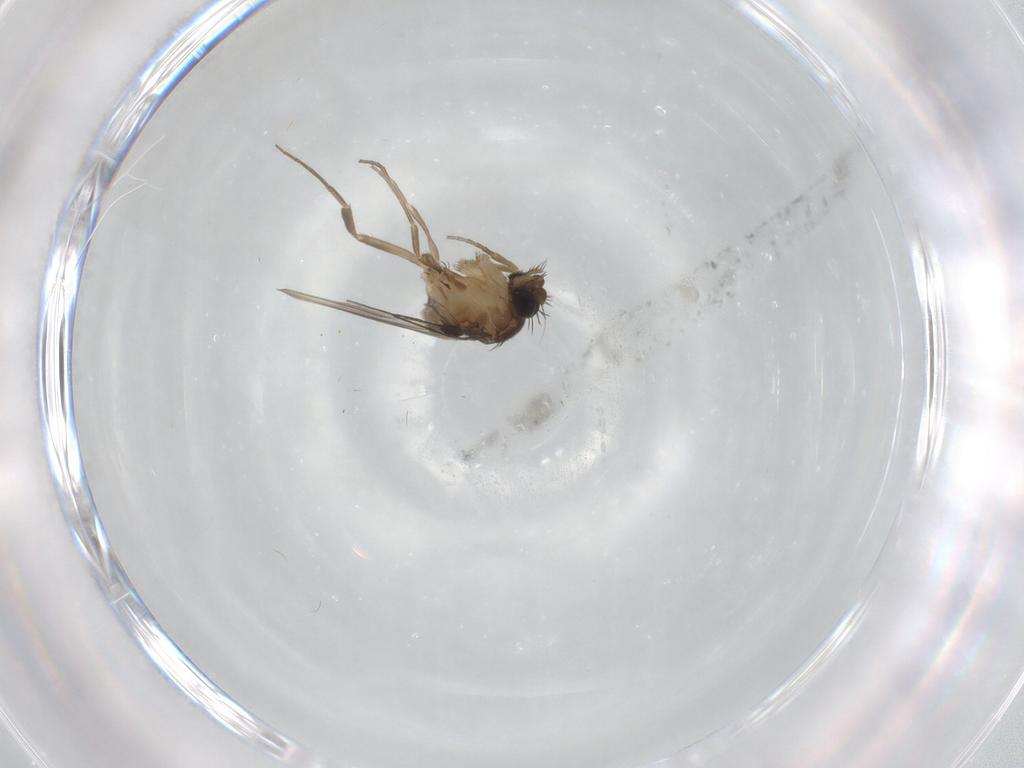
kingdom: Animalia
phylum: Arthropoda
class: Insecta
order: Diptera
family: Phoridae
